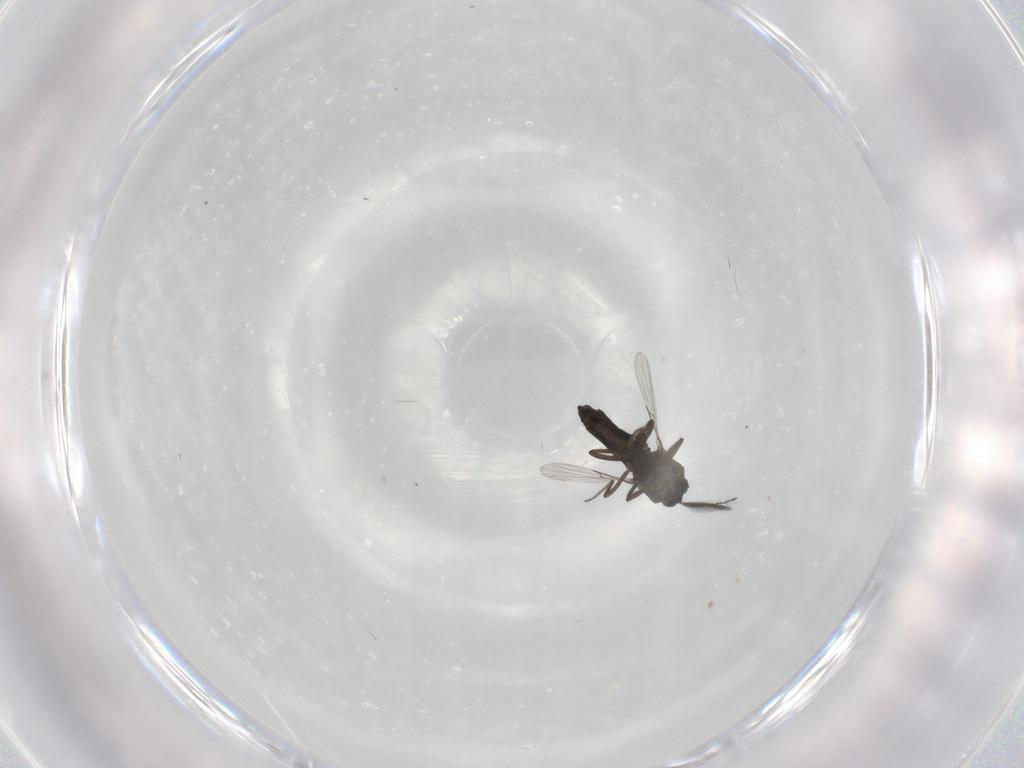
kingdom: Animalia
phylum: Arthropoda
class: Insecta
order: Diptera
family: Ceratopogonidae
